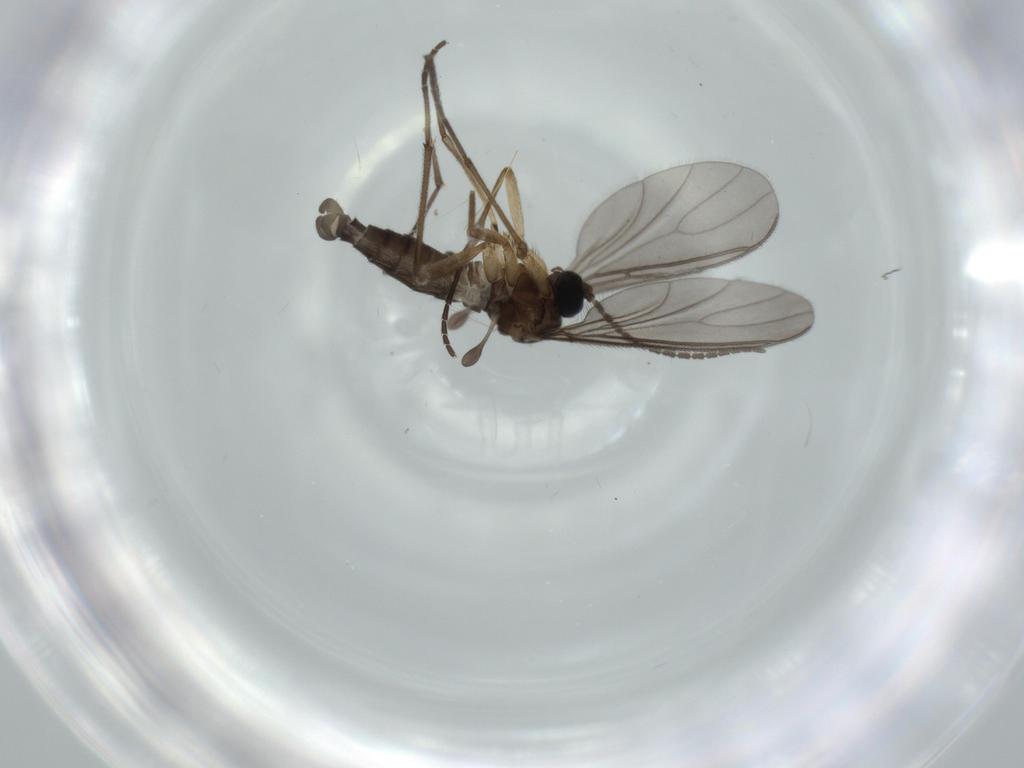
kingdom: Animalia
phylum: Arthropoda
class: Insecta
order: Diptera
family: Sciaridae
